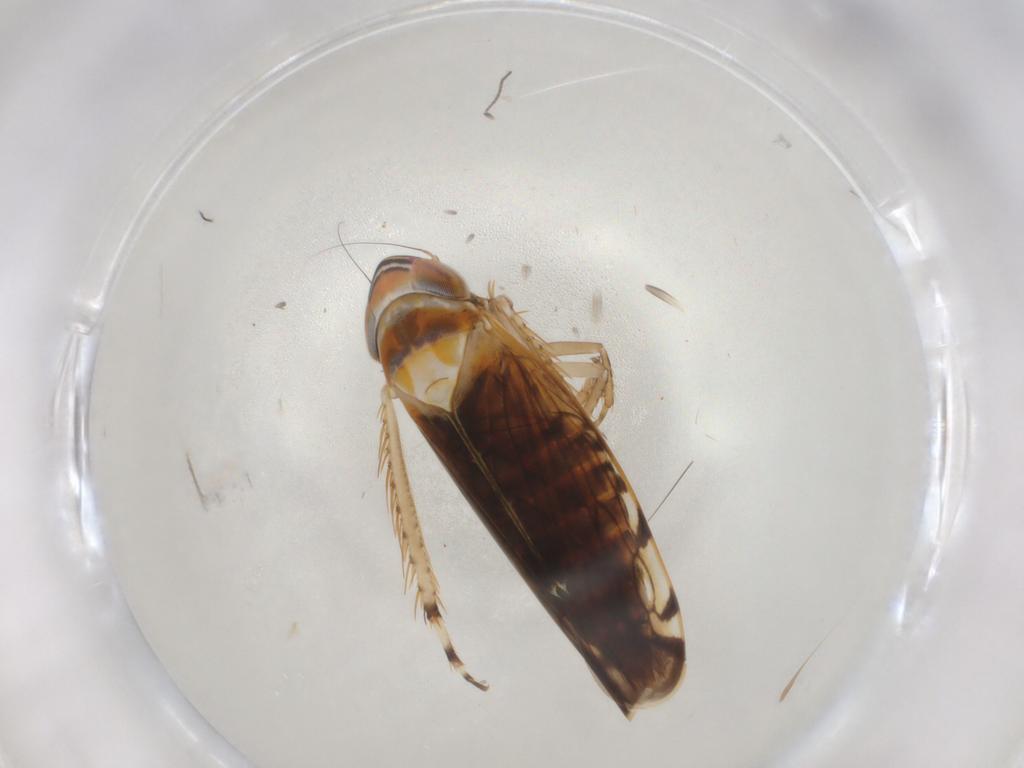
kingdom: Animalia
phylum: Arthropoda
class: Insecta
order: Hemiptera
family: Cicadellidae
